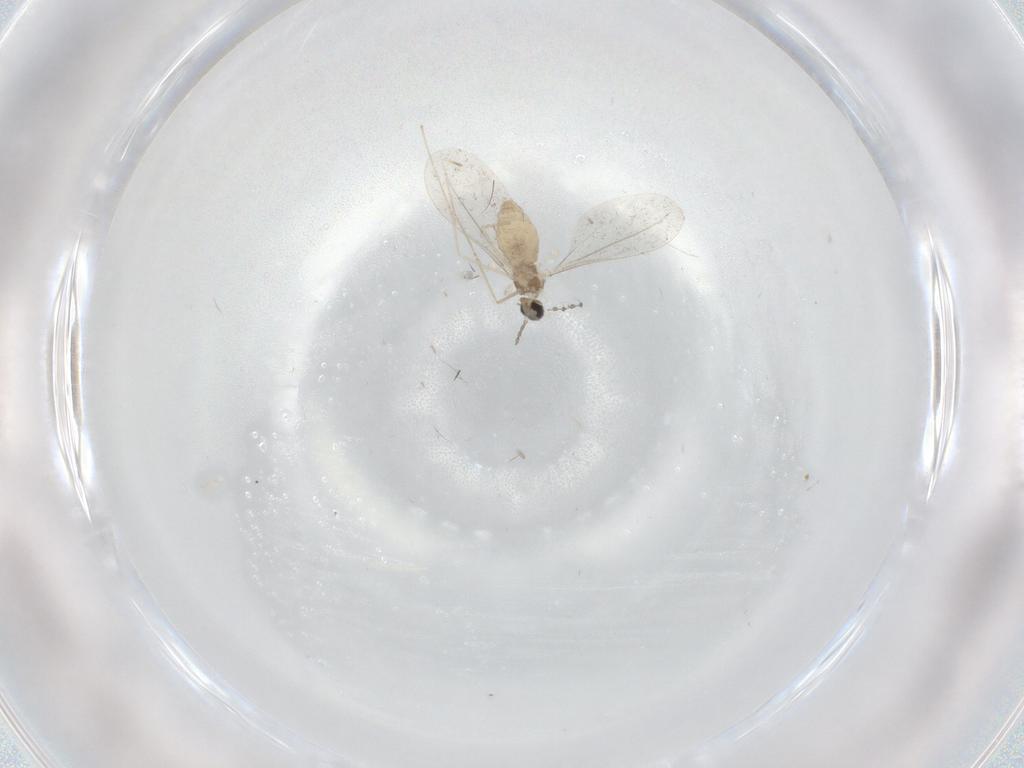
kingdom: Animalia
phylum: Arthropoda
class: Insecta
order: Diptera
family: Cecidomyiidae
